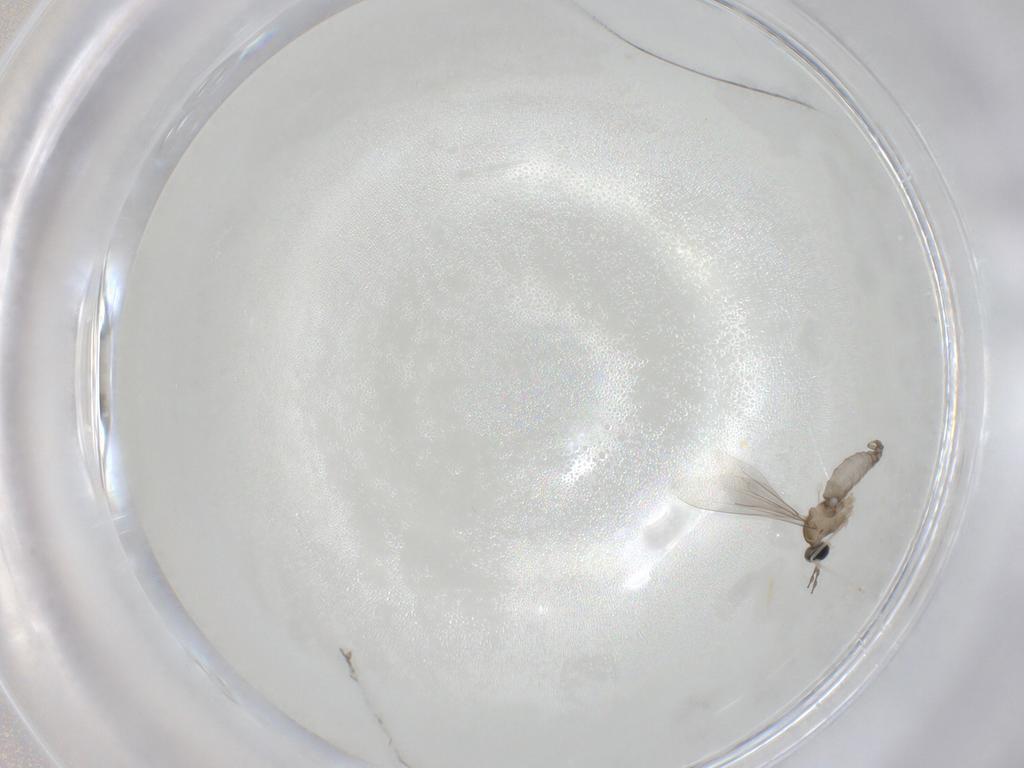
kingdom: Animalia
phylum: Arthropoda
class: Insecta
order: Diptera
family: Cecidomyiidae
